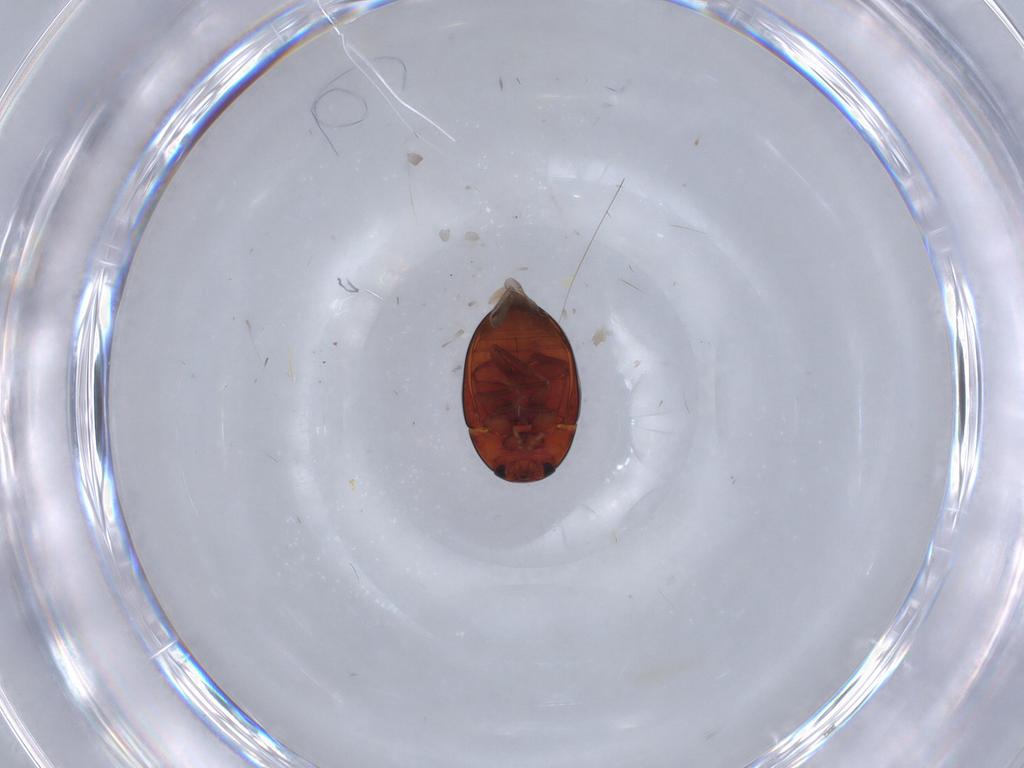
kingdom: Animalia
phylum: Arthropoda
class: Insecta
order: Coleoptera
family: Phalacridae
